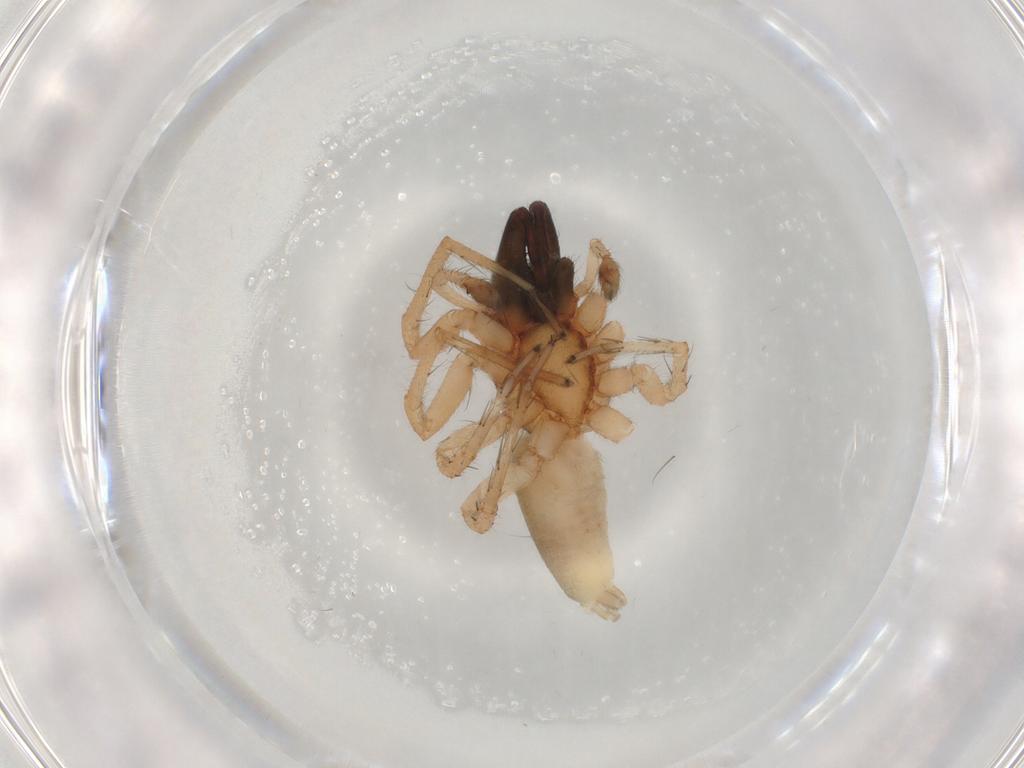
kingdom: Animalia
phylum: Arthropoda
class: Arachnida
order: Araneae
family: Anyphaenidae
